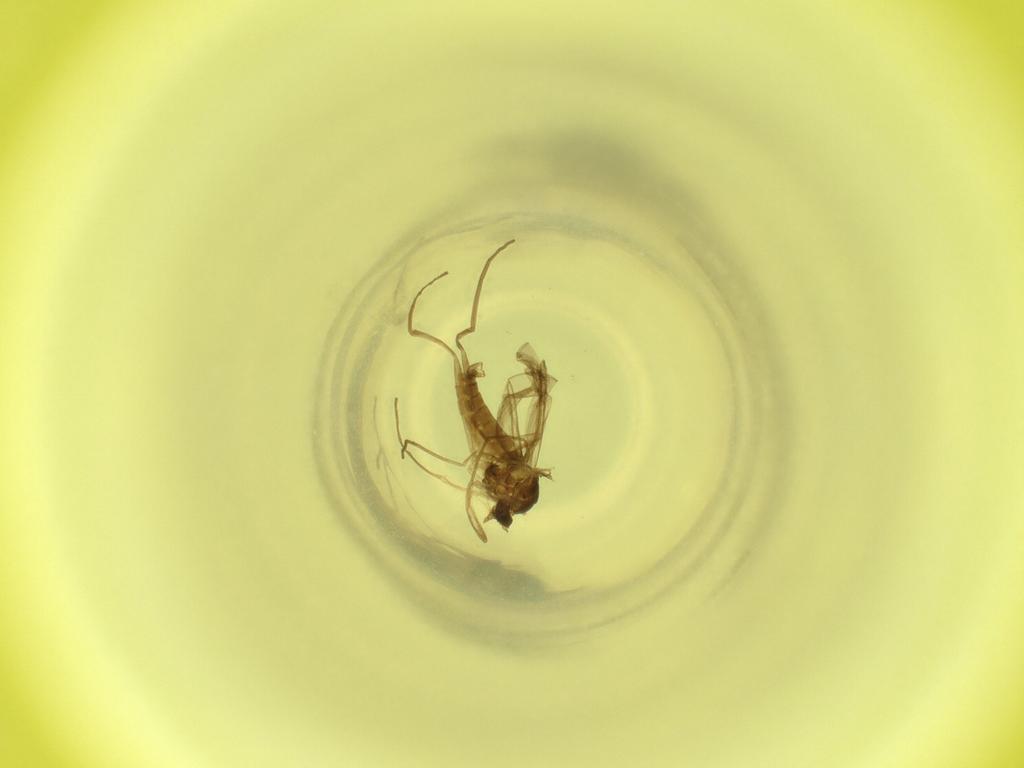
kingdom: Animalia
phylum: Arthropoda
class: Insecta
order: Diptera
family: Cecidomyiidae
